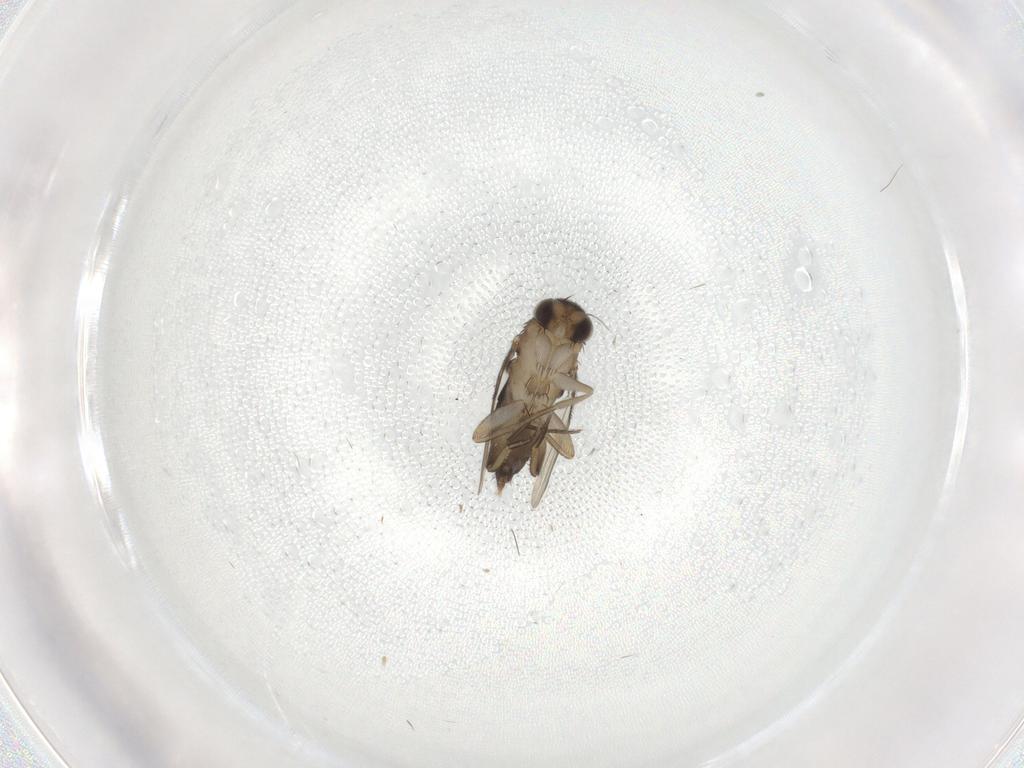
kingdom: Animalia
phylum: Arthropoda
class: Insecta
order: Diptera
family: Phoridae
